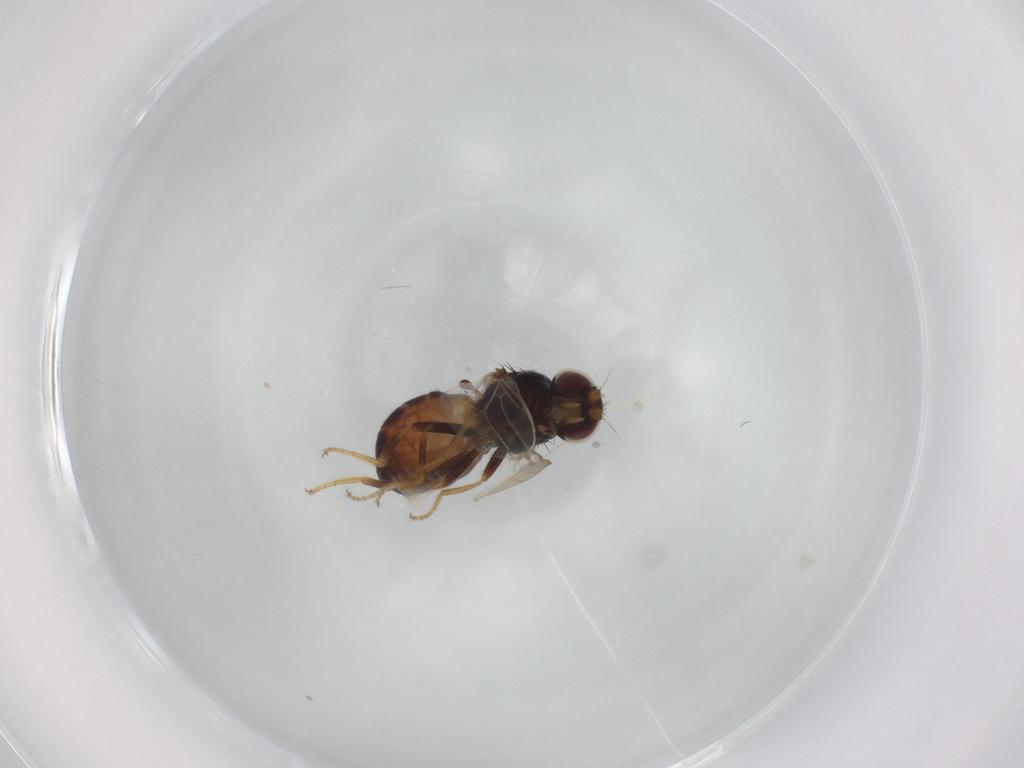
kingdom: Animalia
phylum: Arthropoda
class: Insecta
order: Diptera
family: Chloropidae
